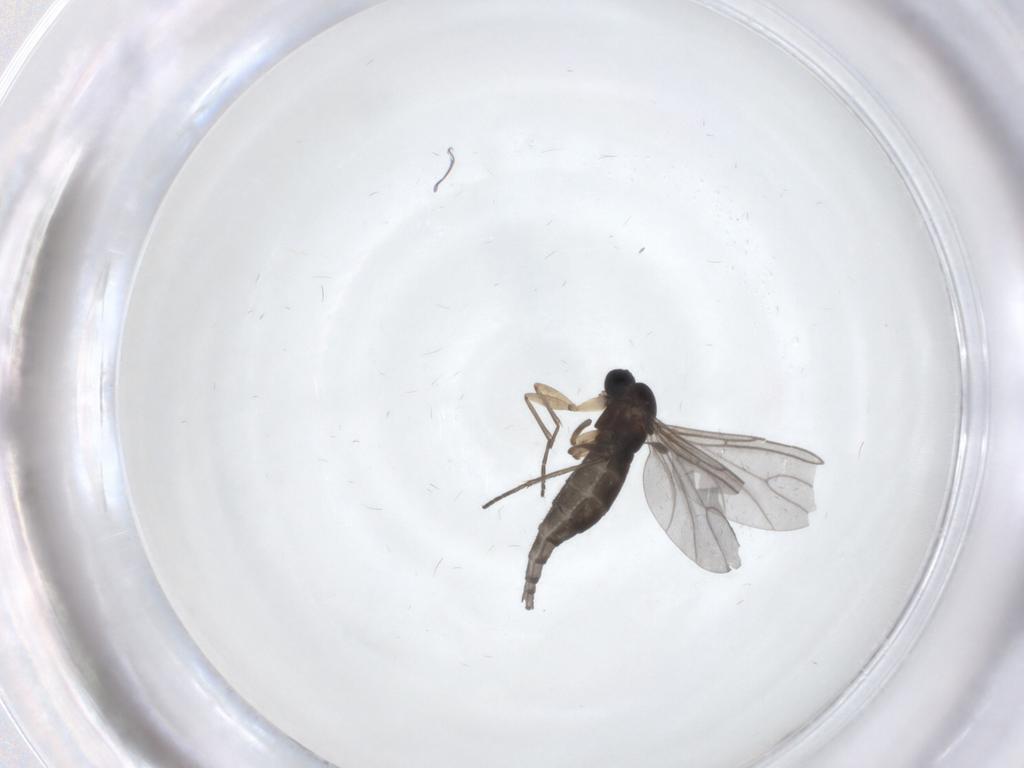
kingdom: Animalia
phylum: Arthropoda
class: Insecta
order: Diptera
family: Sciaridae
